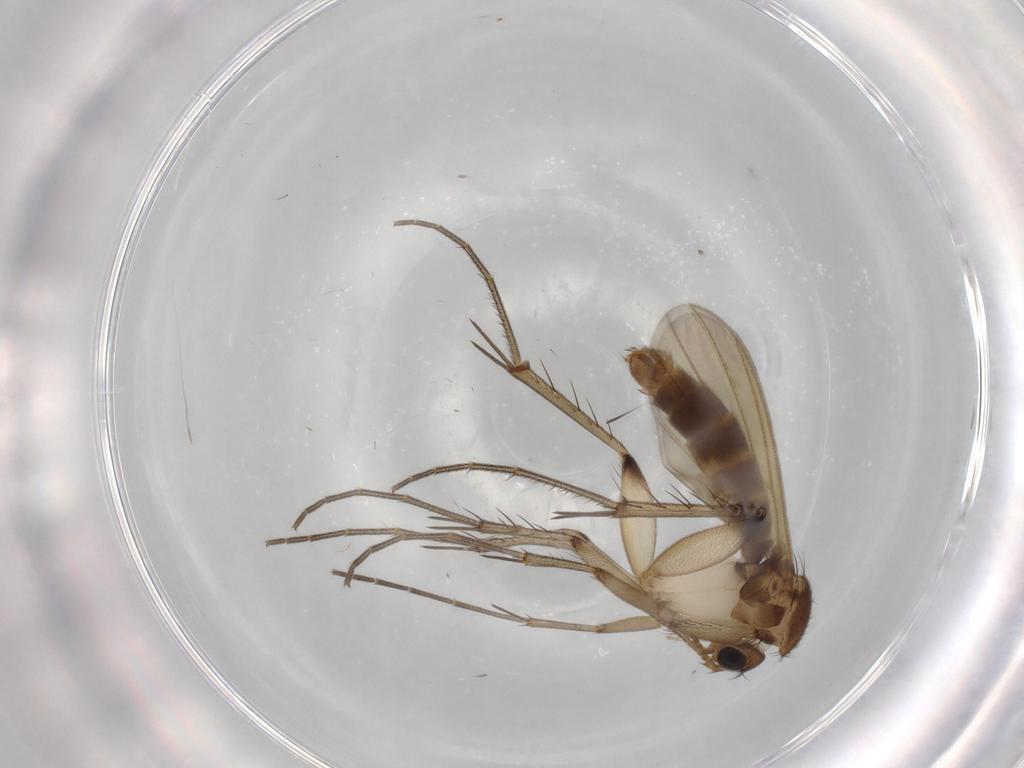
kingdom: Animalia
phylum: Arthropoda
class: Insecta
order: Diptera
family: Mycetophilidae
